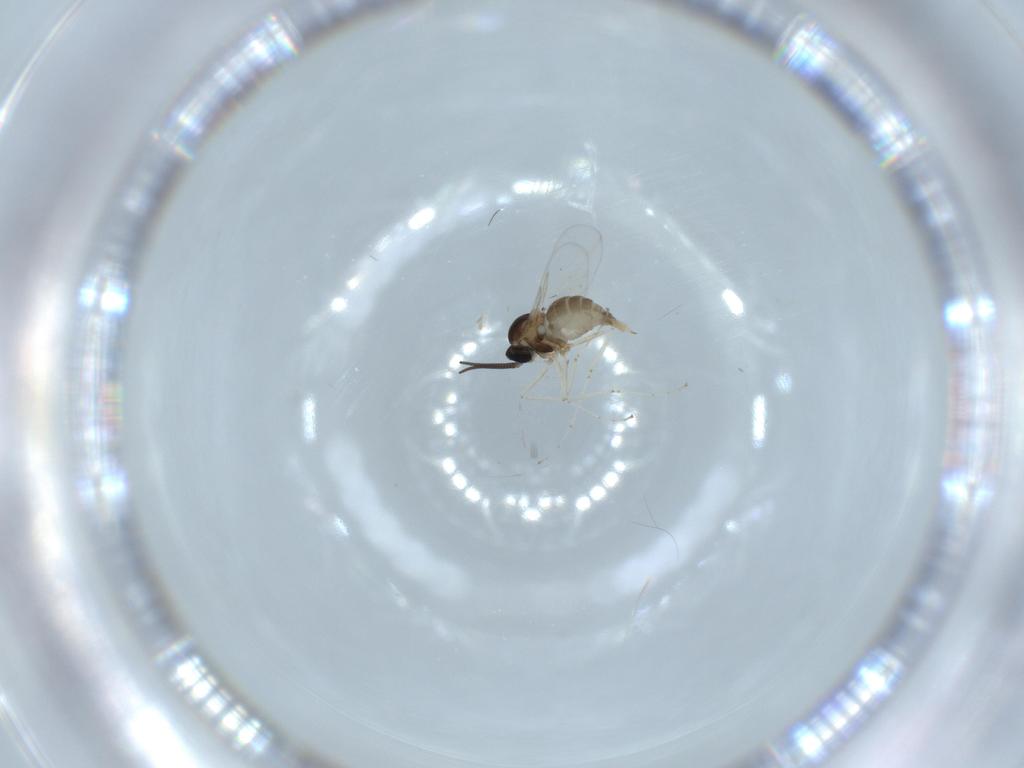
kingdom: Animalia
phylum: Arthropoda
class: Insecta
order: Diptera
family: Cecidomyiidae
